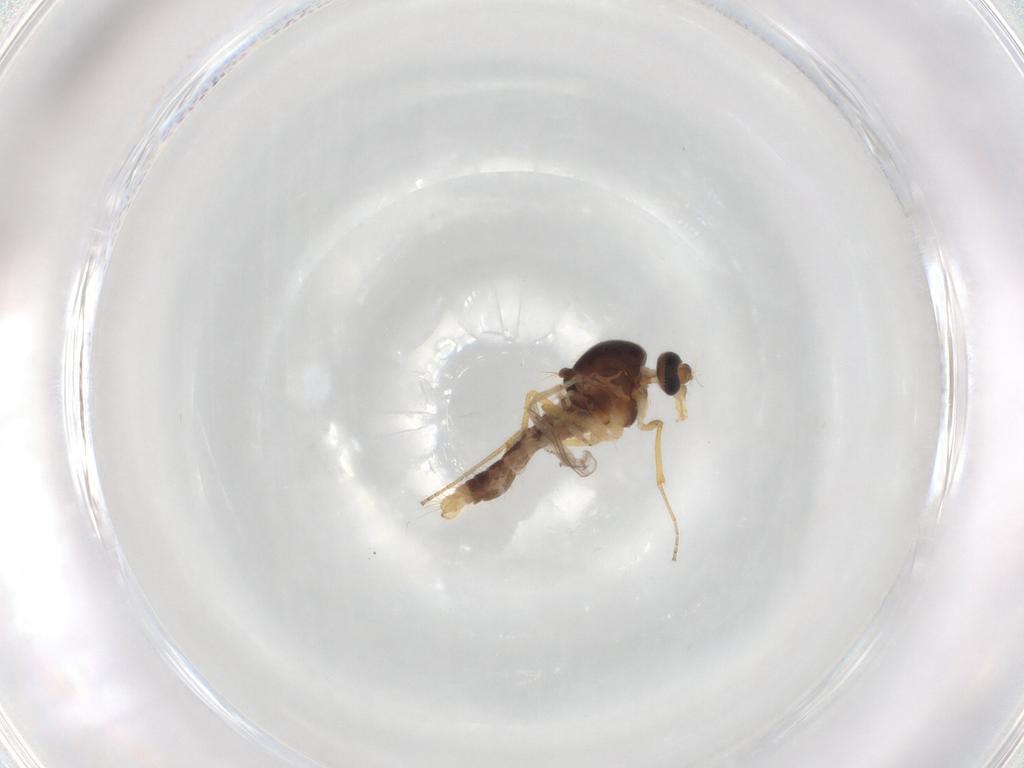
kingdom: Animalia
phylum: Arthropoda
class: Insecta
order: Diptera
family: Ceratopogonidae
